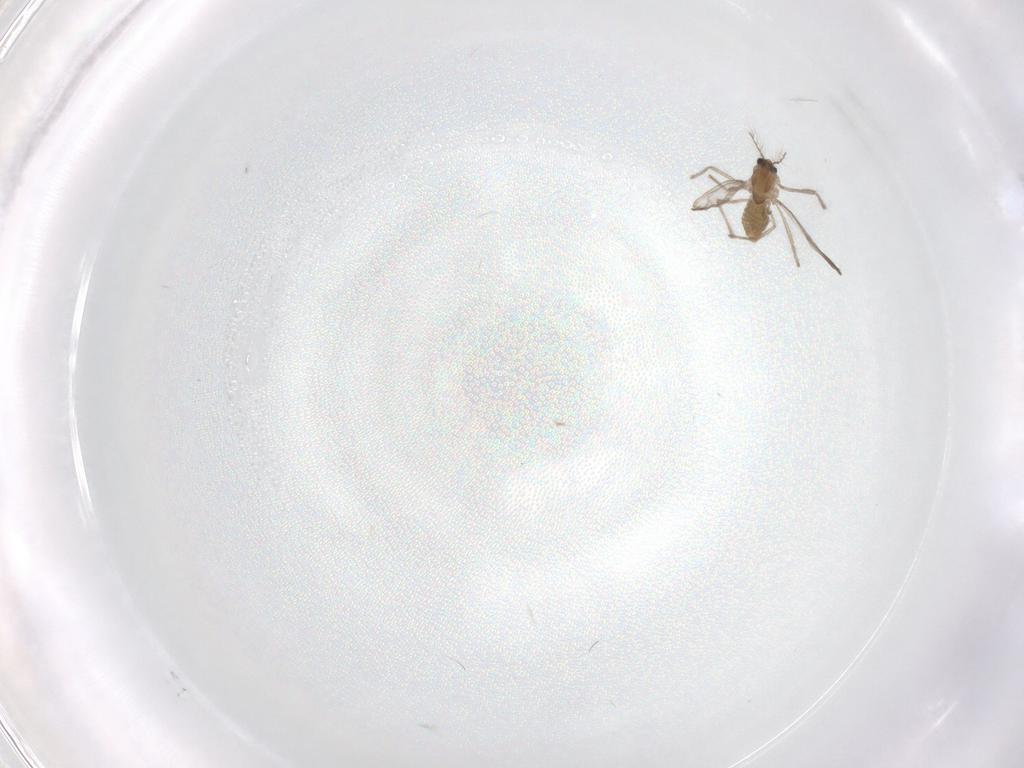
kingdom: Animalia
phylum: Arthropoda
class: Insecta
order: Diptera
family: Chironomidae
